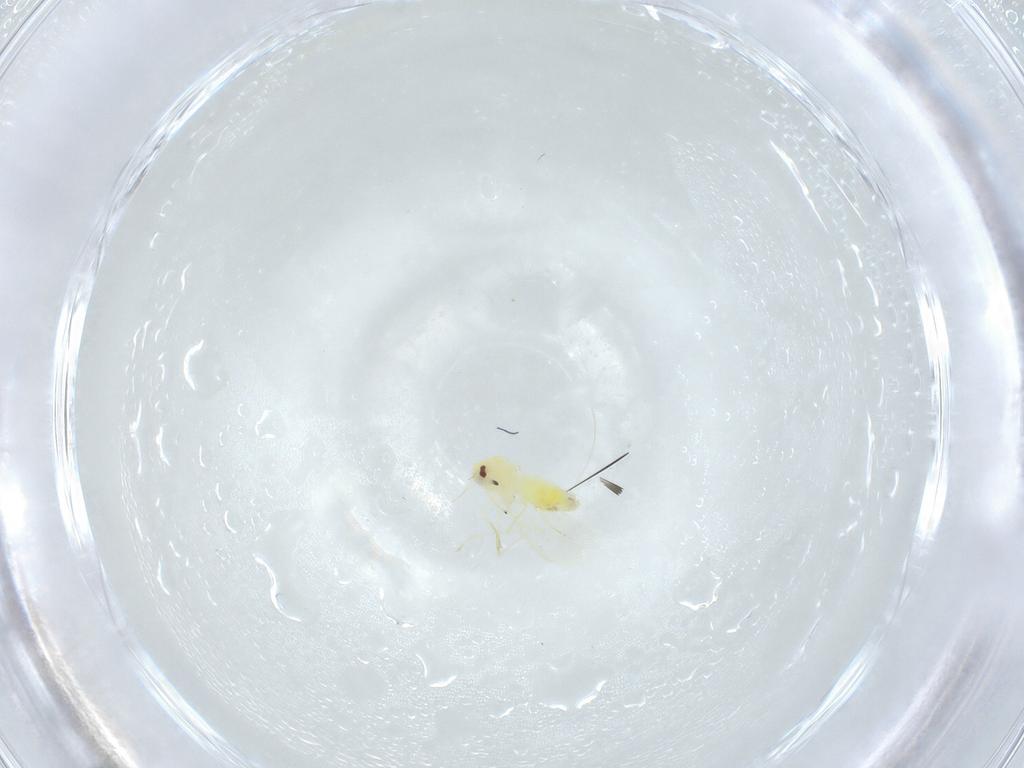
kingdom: Animalia
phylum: Arthropoda
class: Insecta
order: Hemiptera
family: Aleyrodidae
